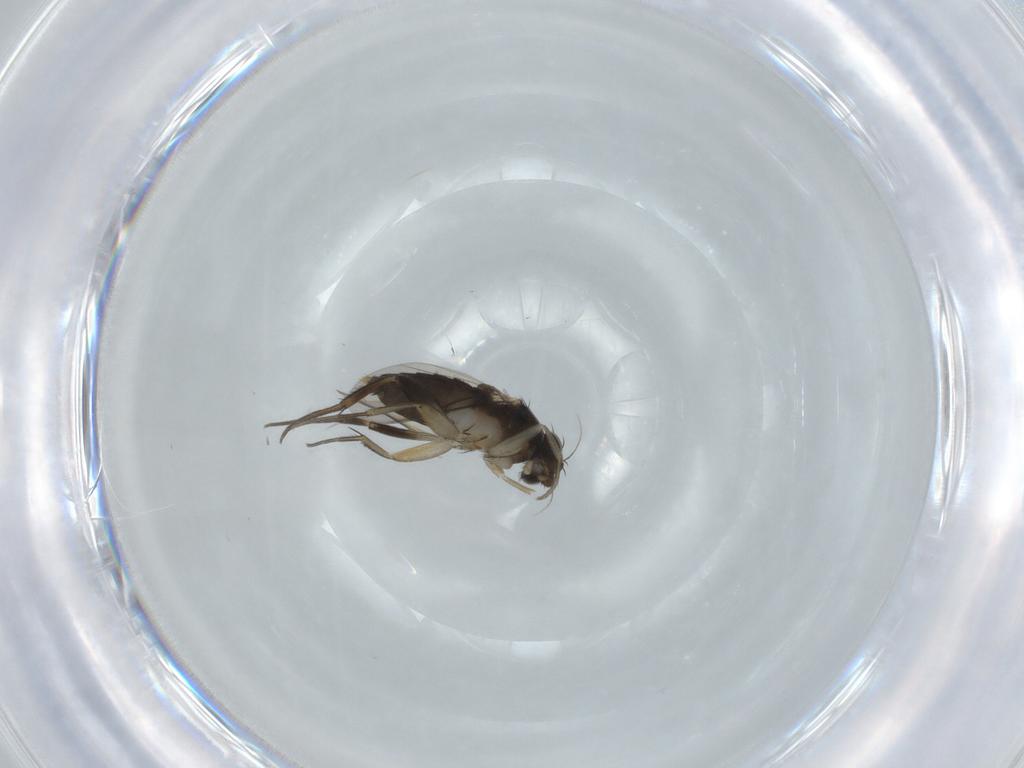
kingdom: Animalia
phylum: Arthropoda
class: Insecta
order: Diptera
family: Phoridae
